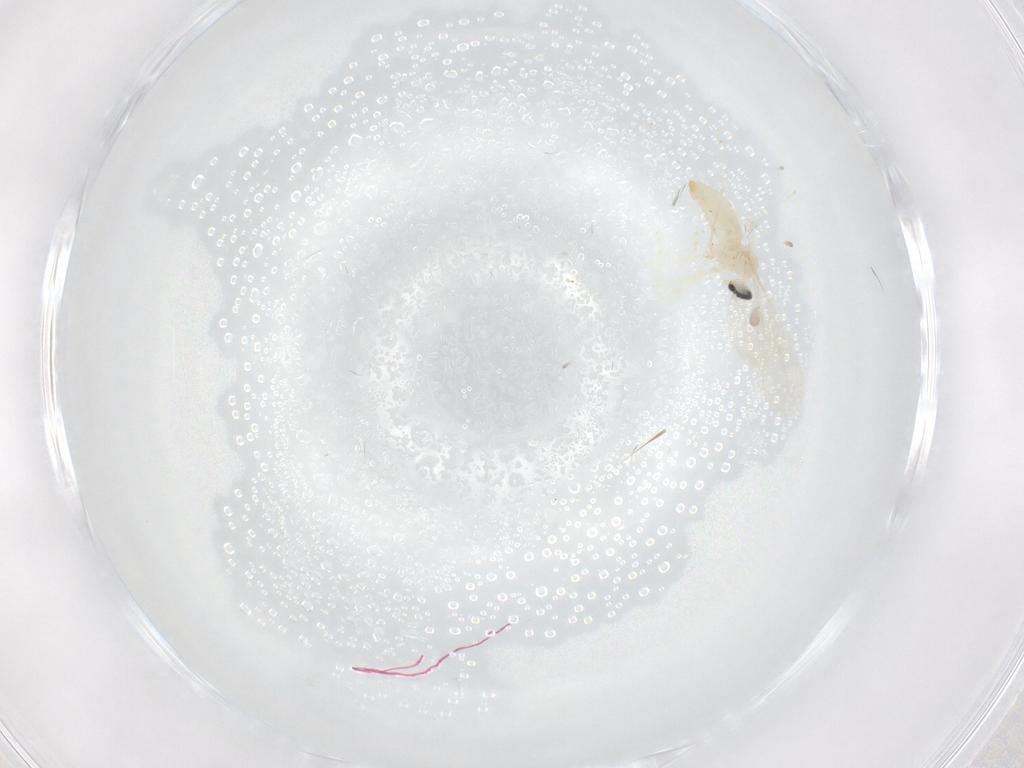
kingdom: Animalia
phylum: Arthropoda
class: Insecta
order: Diptera
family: Cecidomyiidae
